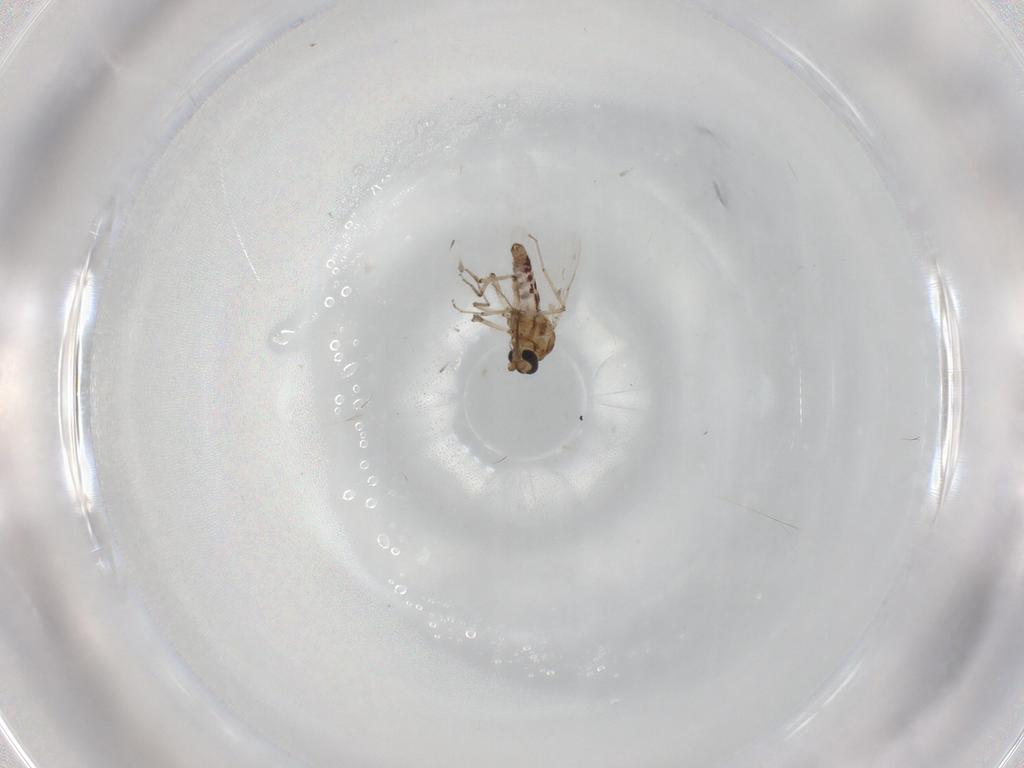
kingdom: Animalia
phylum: Arthropoda
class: Insecta
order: Diptera
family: Ceratopogonidae
